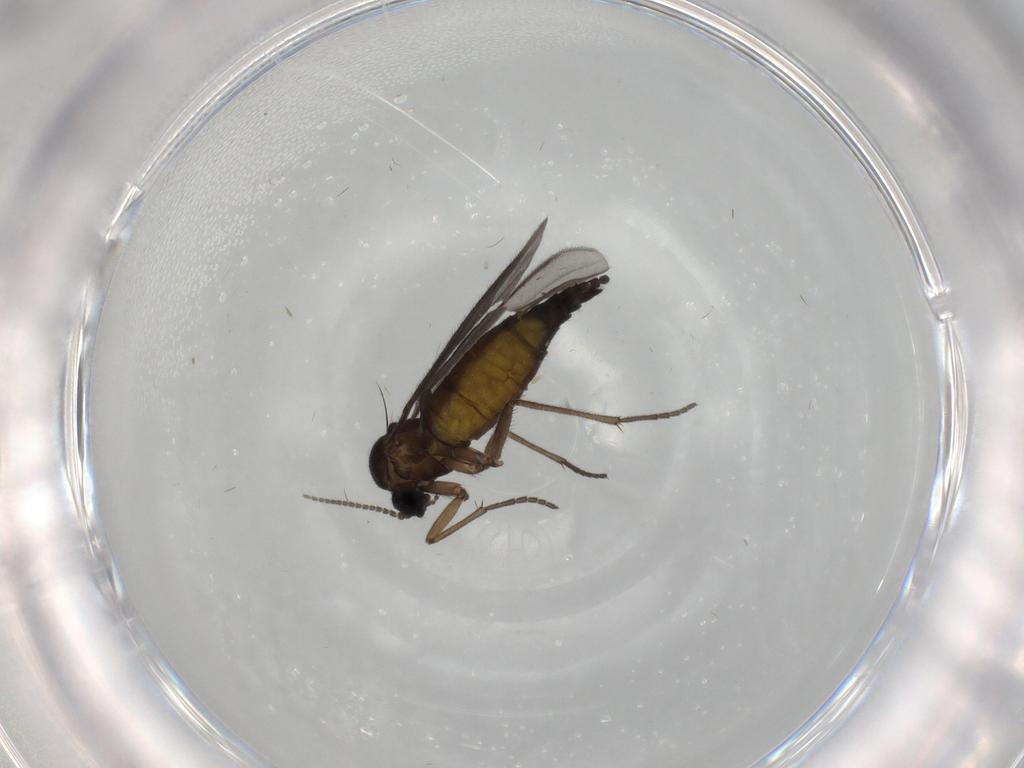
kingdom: Animalia
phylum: Arthropoda
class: Insecta
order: Diptera
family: Sciaridae
